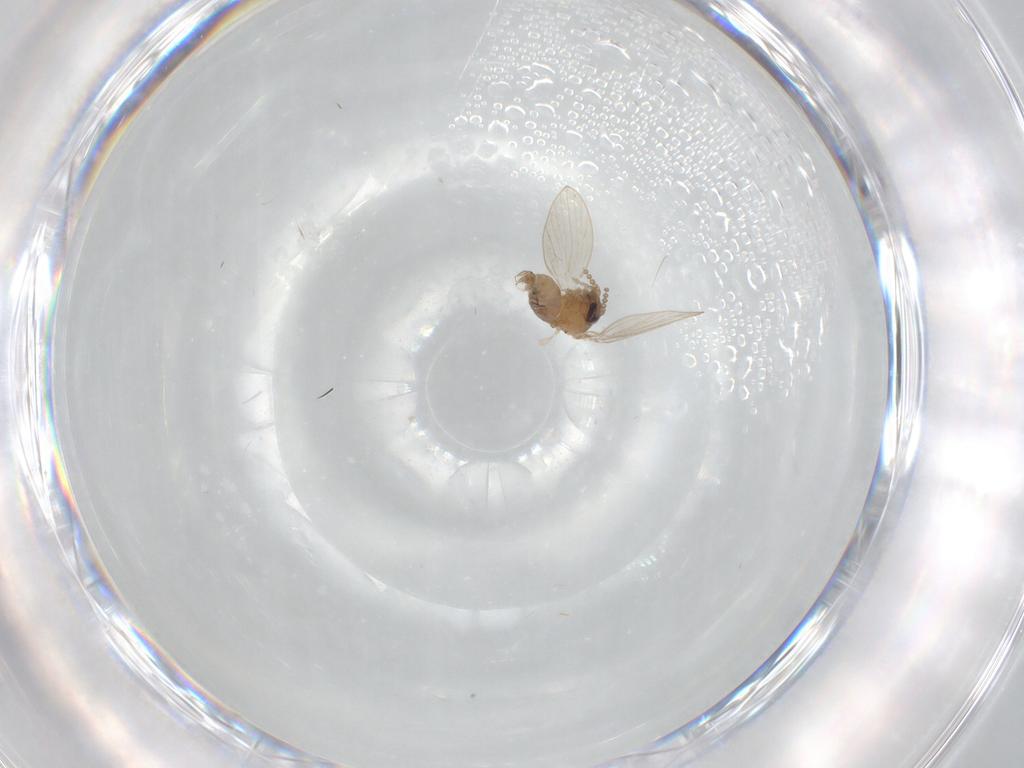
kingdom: Animalia
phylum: Arthropoda
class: Insecta
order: Diptera
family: Psychodidae
